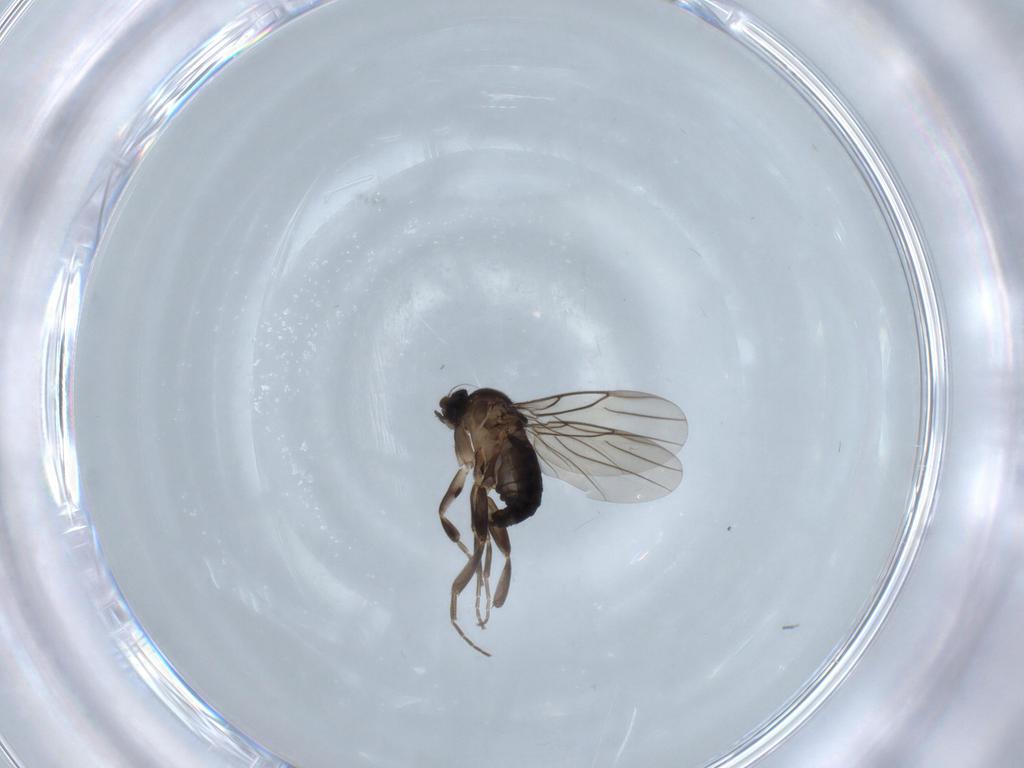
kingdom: Animalia
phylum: Arthropoda
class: Insecta
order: Diptera
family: Phoridae
